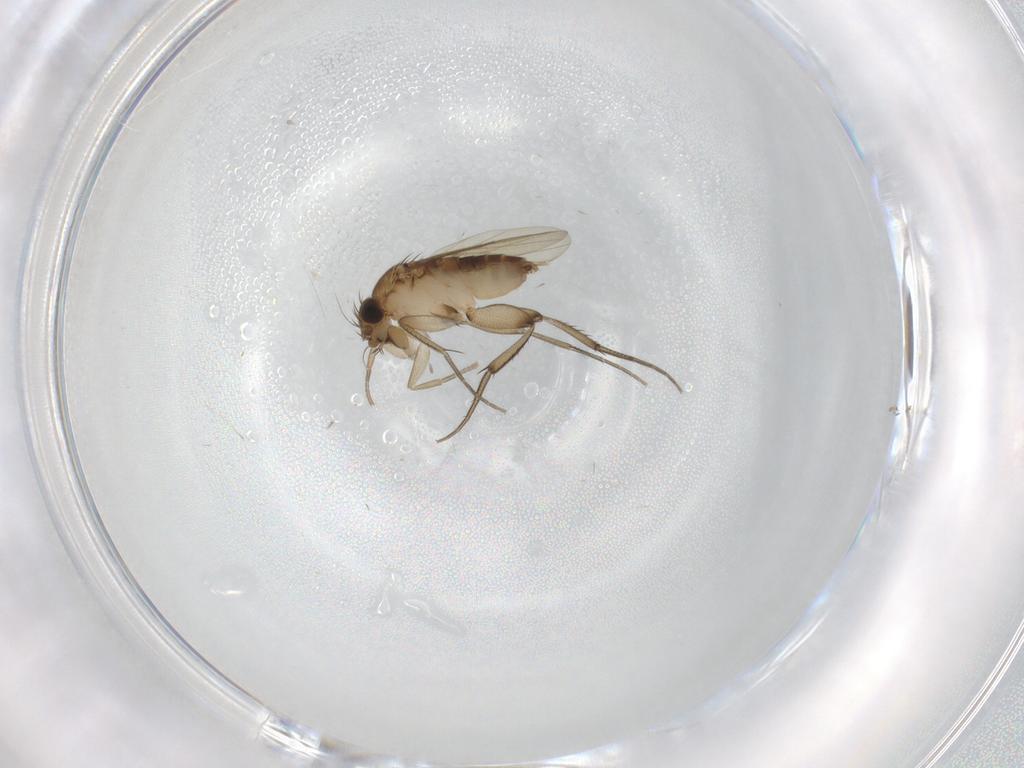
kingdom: Animalia
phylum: Arthropoda
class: Insecta
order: Diptera
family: Phoridae
